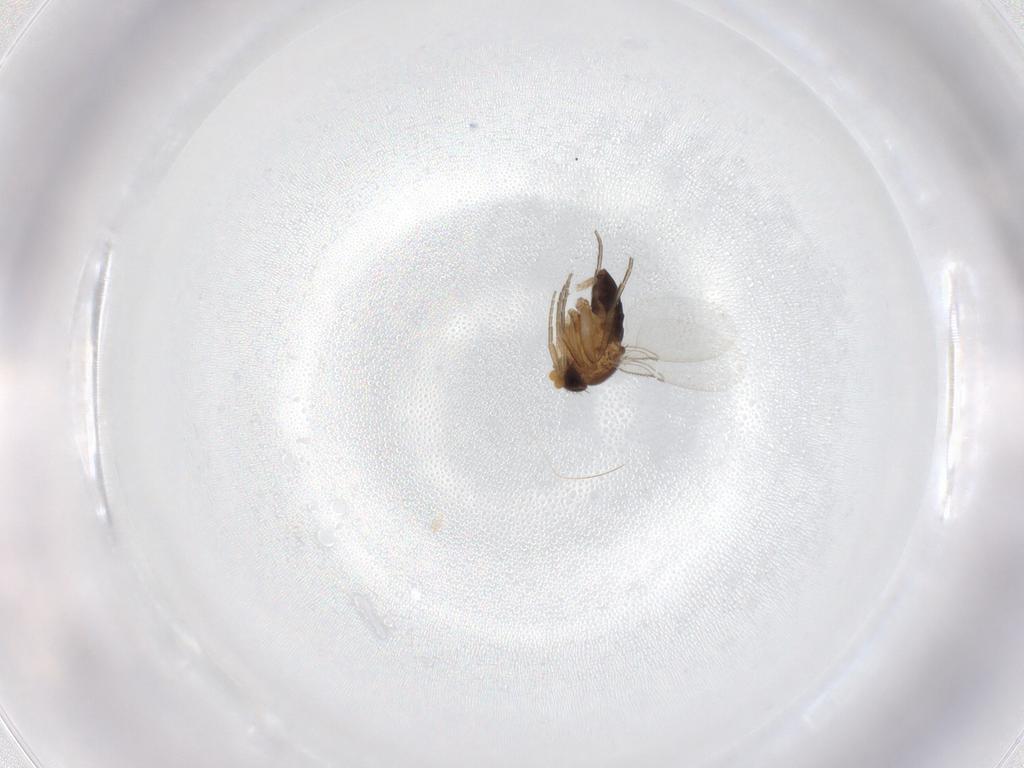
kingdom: Animalia
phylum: Arthropoda
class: Insecta
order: Diptera
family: Phoridae
